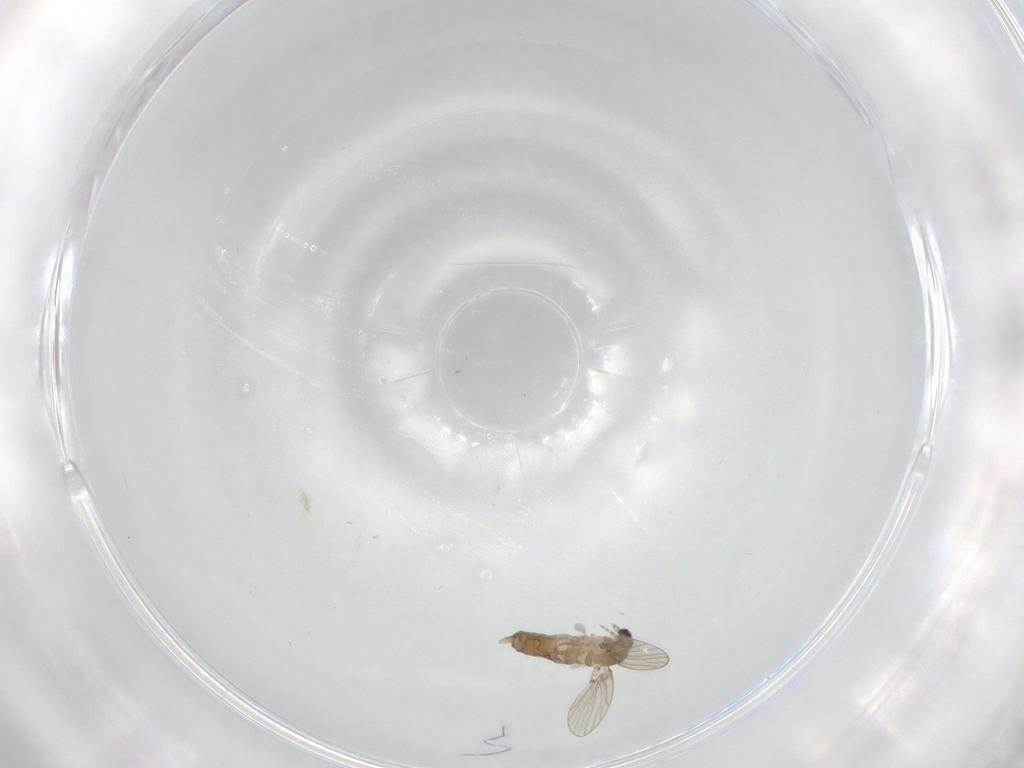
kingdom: Animalia
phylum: Arthropoda
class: Insecta
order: Diptera
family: Psychodidae
